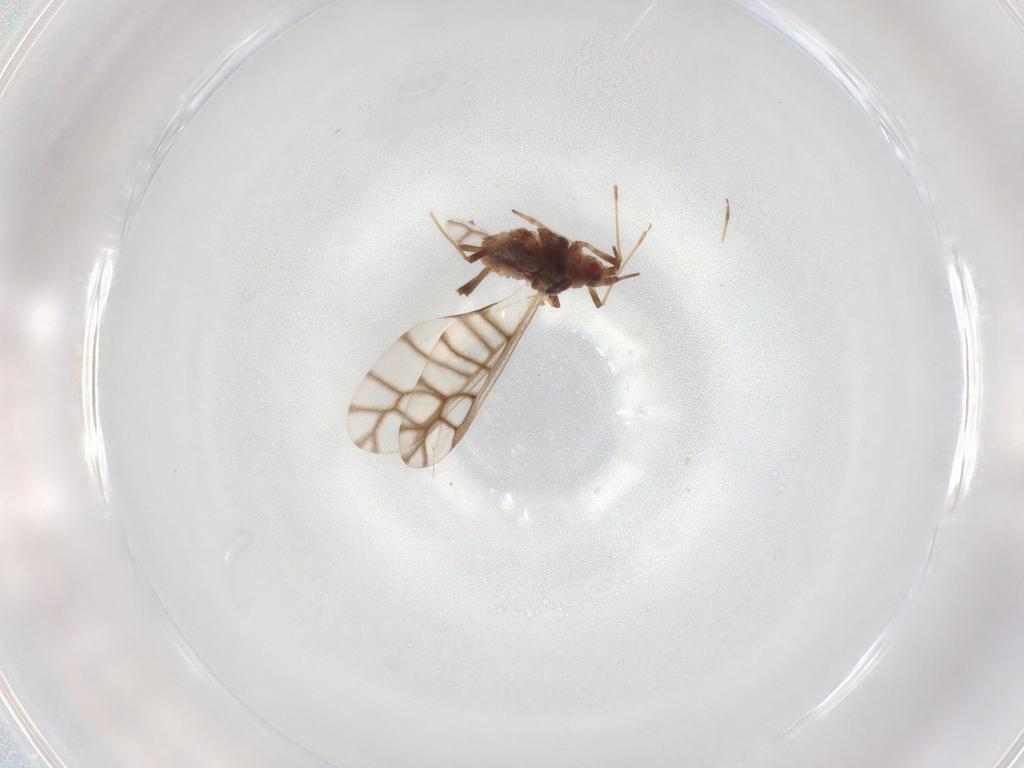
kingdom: Animalia
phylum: Arthropoda
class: Insecta
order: Hemiptera
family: Aphididae
